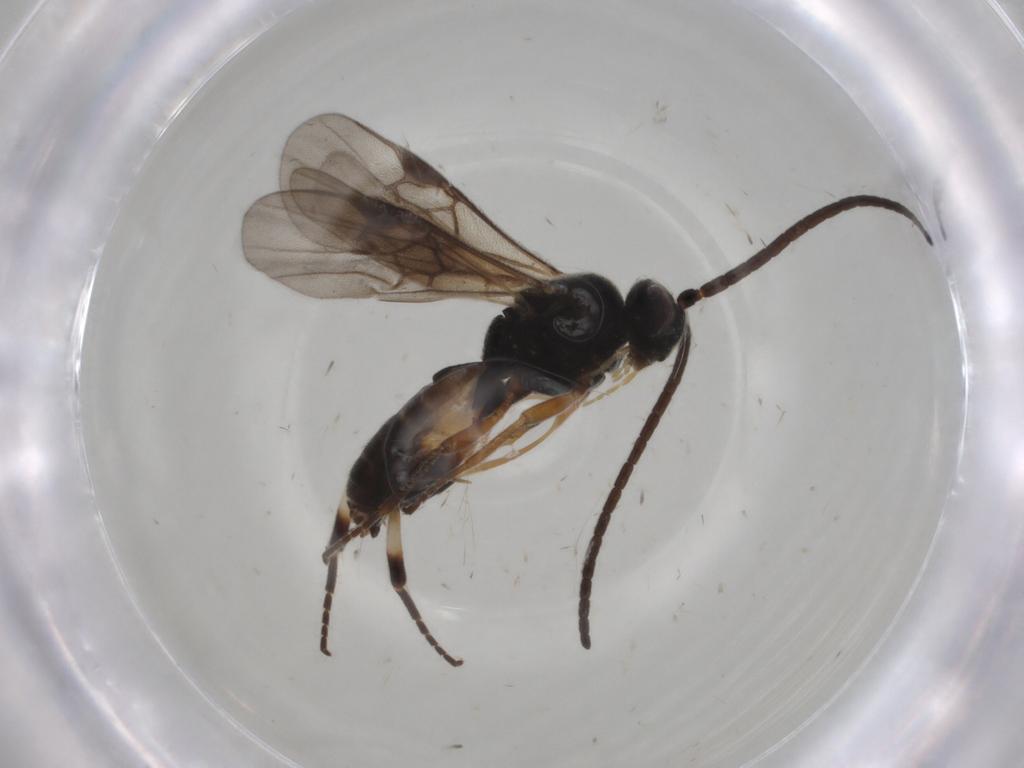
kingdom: Animalia
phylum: Arthropoda
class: Insecta
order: Hymenoptera
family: Braconidae
